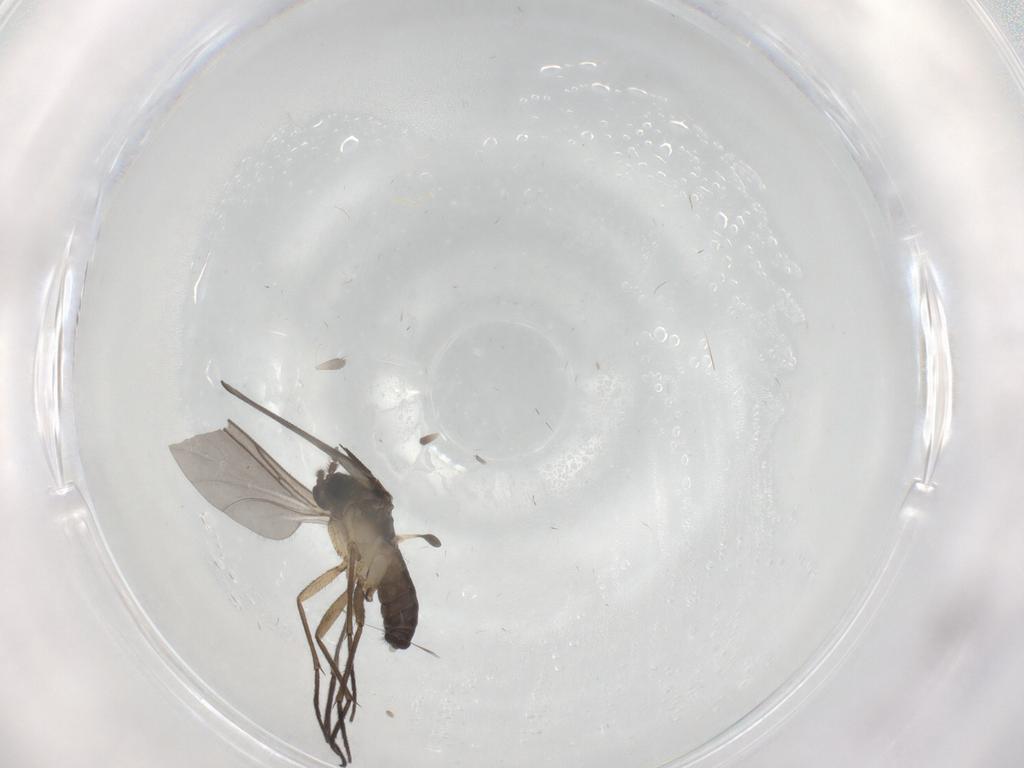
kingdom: Animalia
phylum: Arthropoda
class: Insecta
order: Diptera
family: Sciaridae
